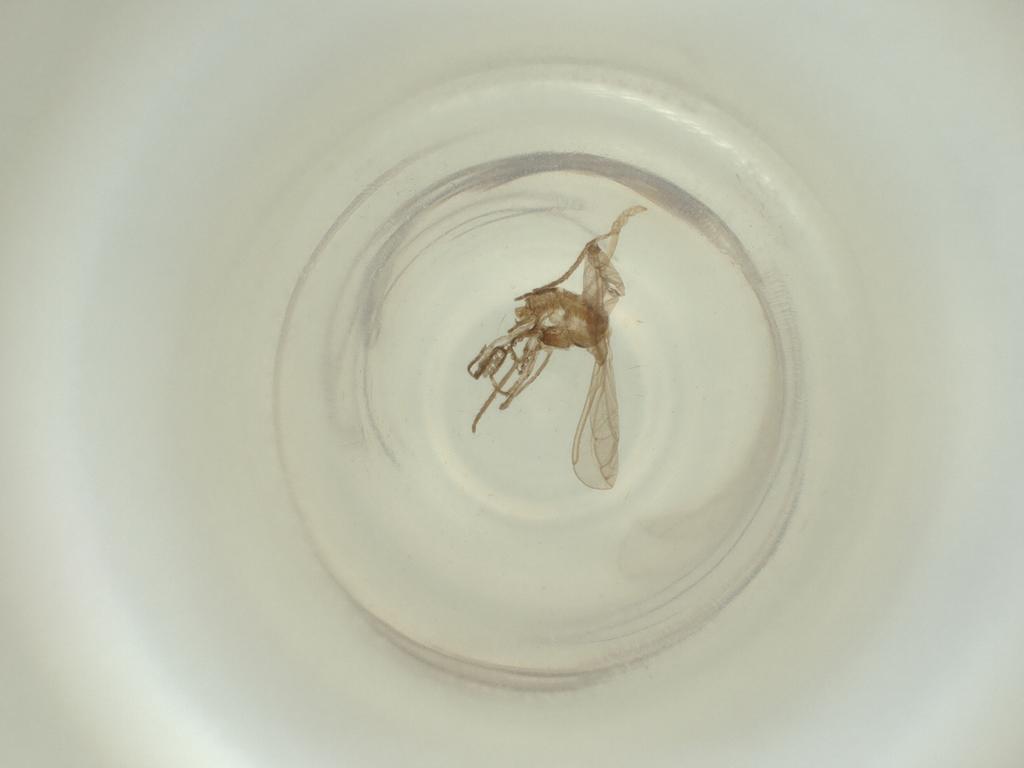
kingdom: Animalia
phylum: Arthropoda
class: Insecta
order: Diptera
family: Cecidomyiidae
